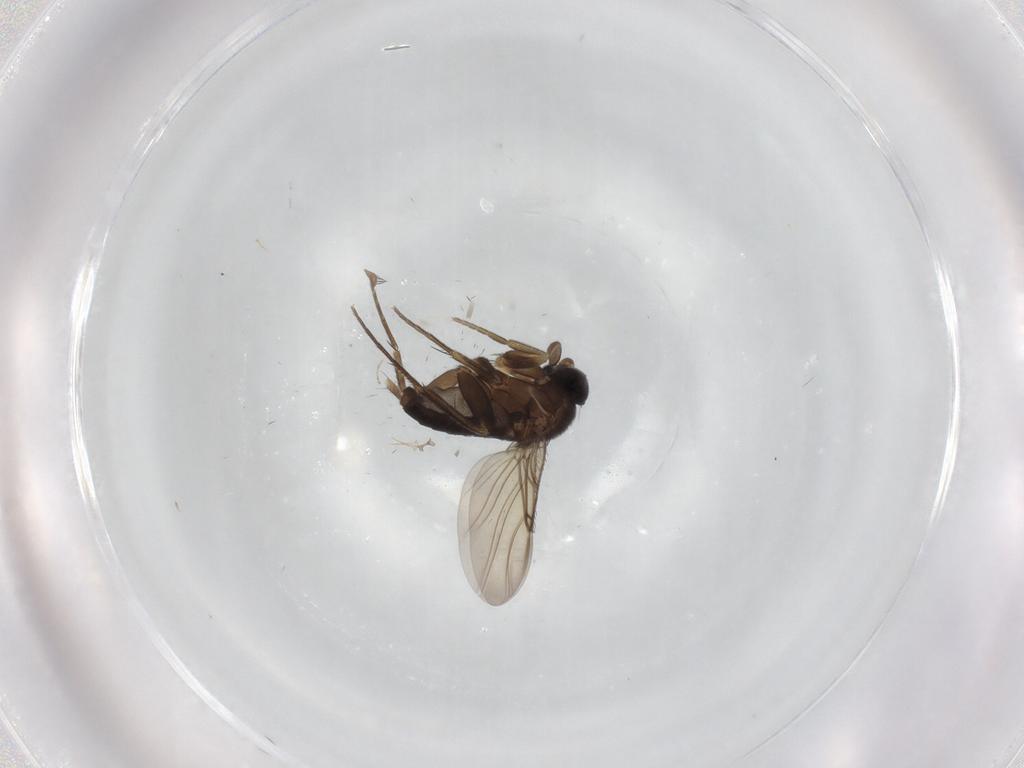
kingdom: Animalia
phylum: Arthropoda
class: Insecta
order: Diptera
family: Phoridae
